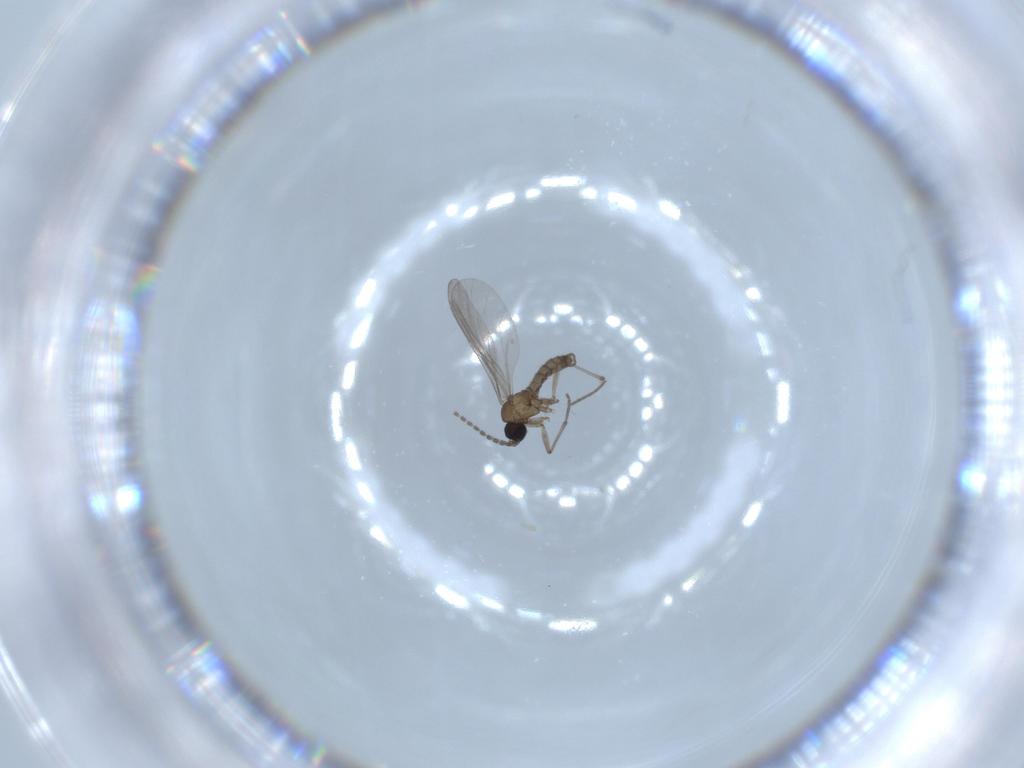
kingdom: Animalia
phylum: Arthropoda
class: Insecta
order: Diptera
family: Sciaridae
